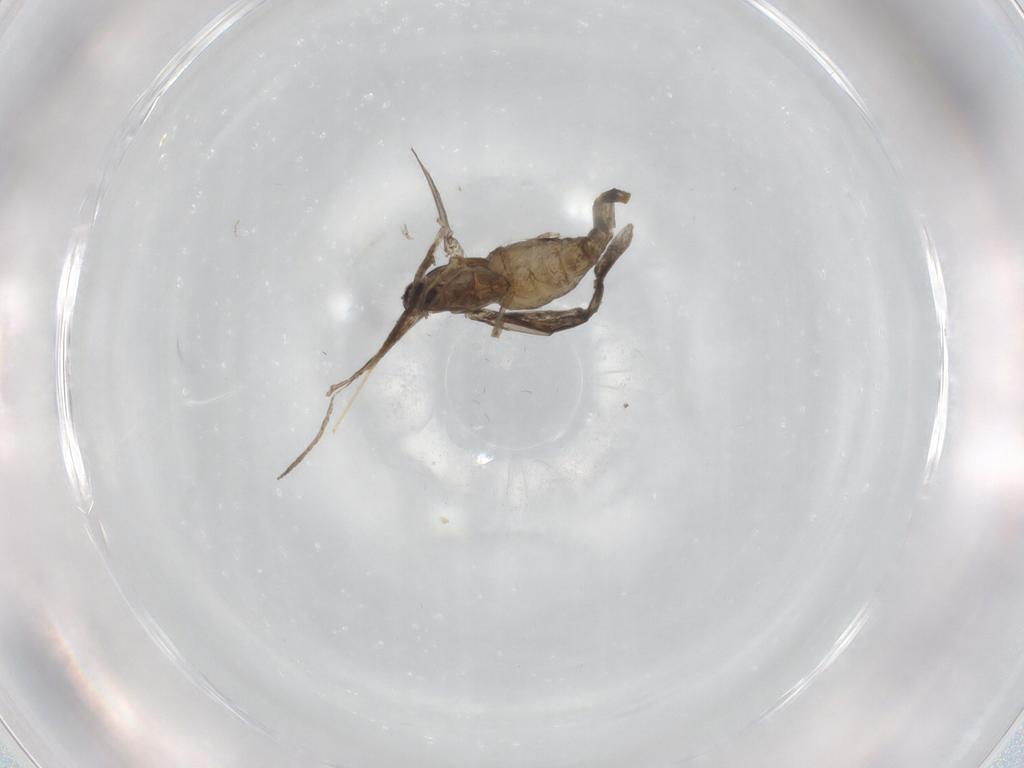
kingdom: Animalia
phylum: Arthropoda
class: Insecta
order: Diptera
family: Cecidomyiidae
